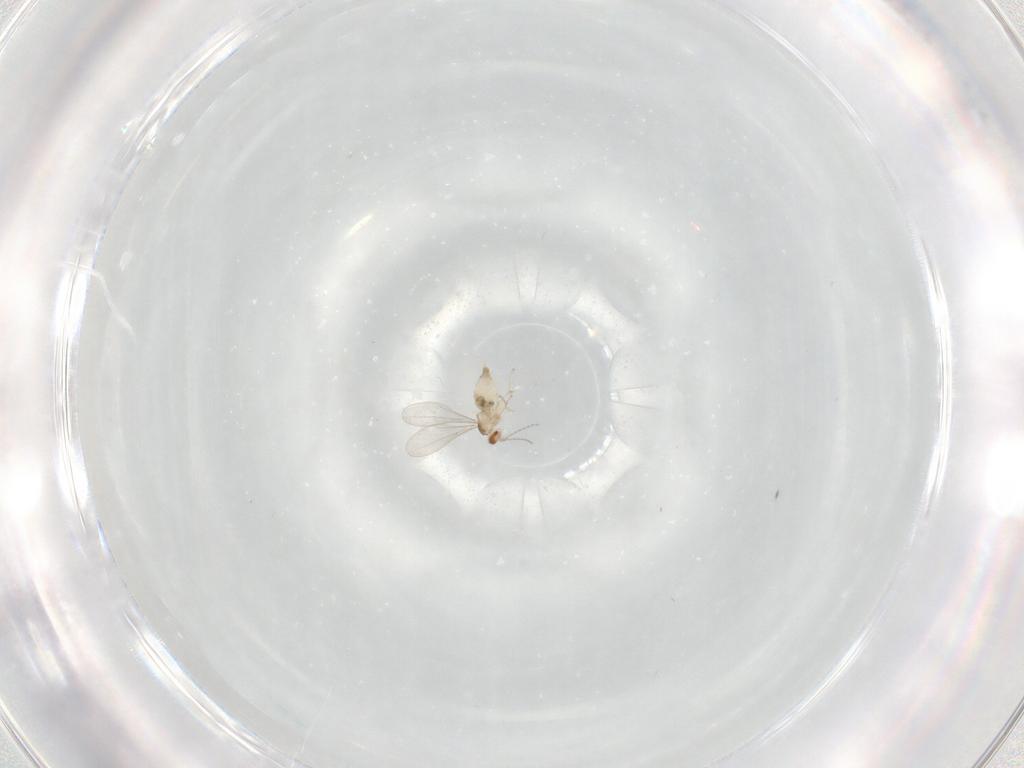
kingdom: Animalia
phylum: Arthropoda
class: Insecta
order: Diptera
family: Cecidomyiidae
